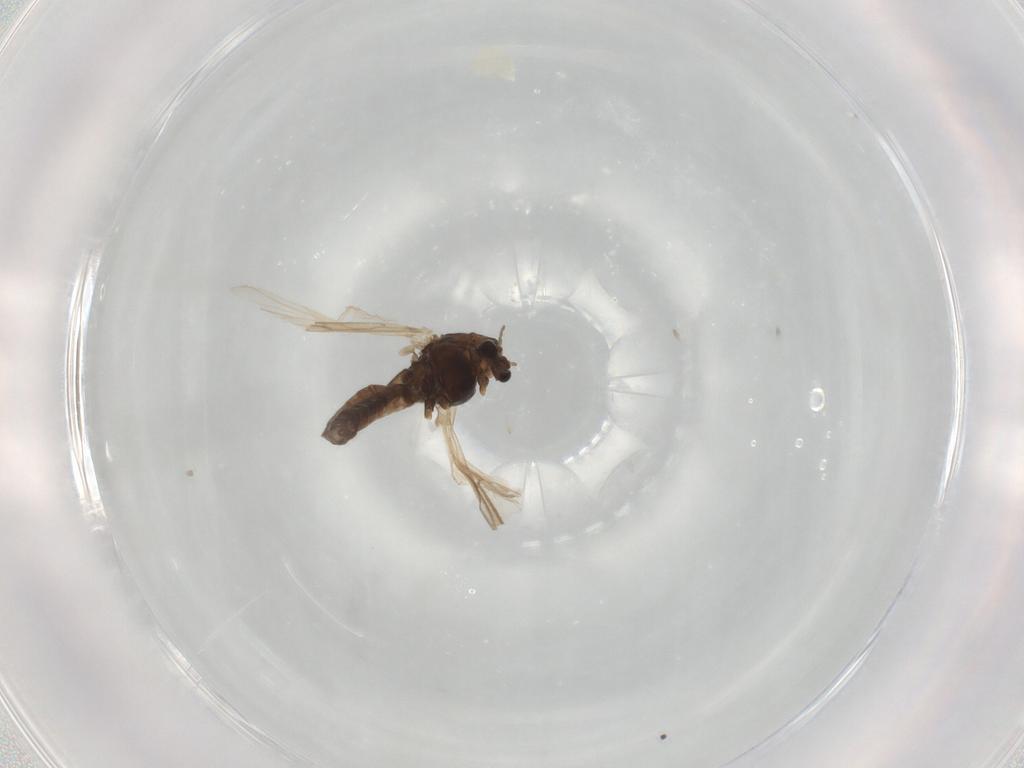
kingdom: Animalia
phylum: Arthropoda
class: Insecta
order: Diptera
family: Chironomidae
